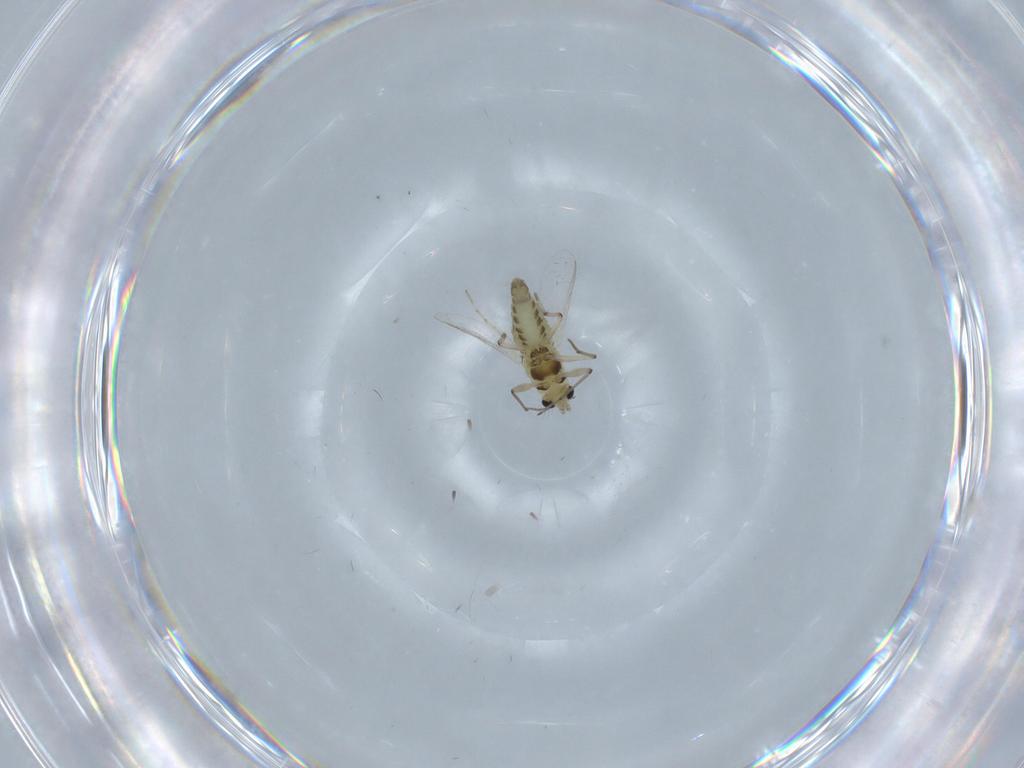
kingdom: Animalia
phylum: Arthropoda
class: Insecta
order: Diptera
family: Chironomidae
